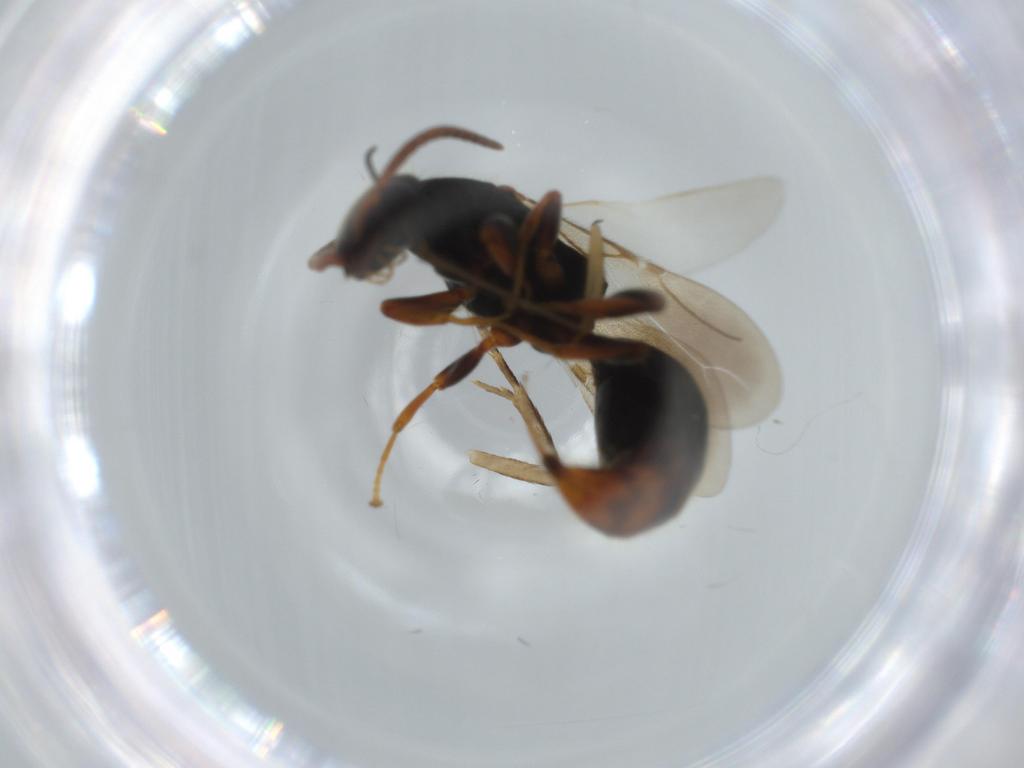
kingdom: Animalia
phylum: Arthropoda
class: Insecta
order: Hymenoptera
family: Bethylidae
